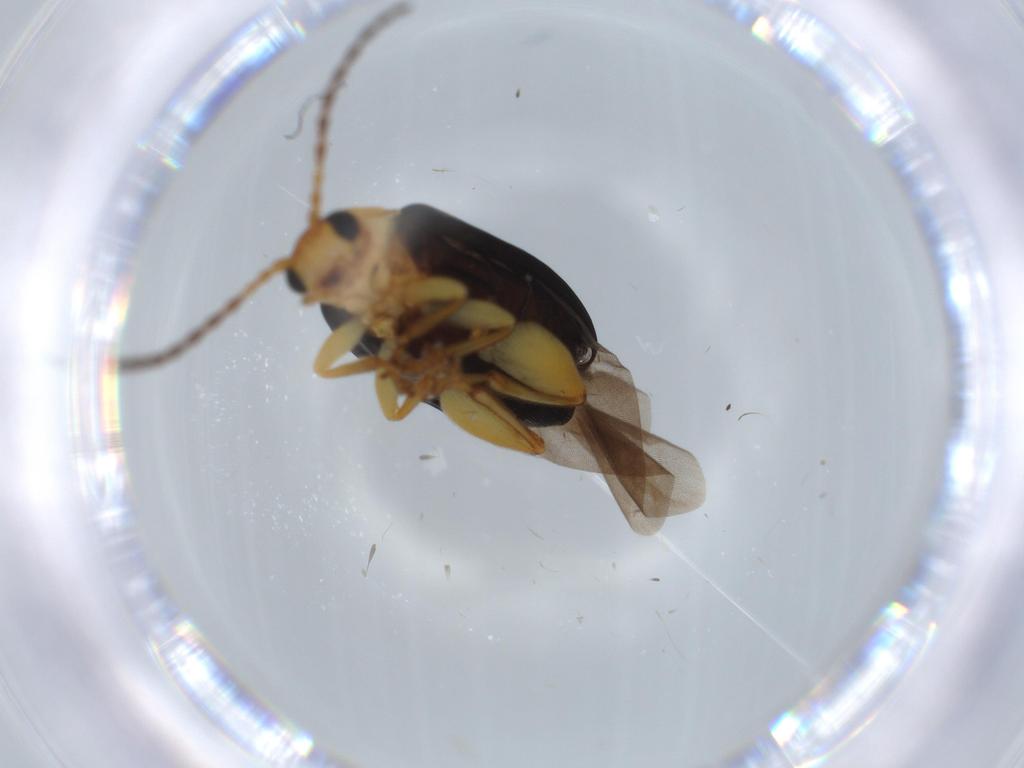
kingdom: Animalia
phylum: Arthropoda
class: Insecta
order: Coleoptera
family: Chrysomelidae
